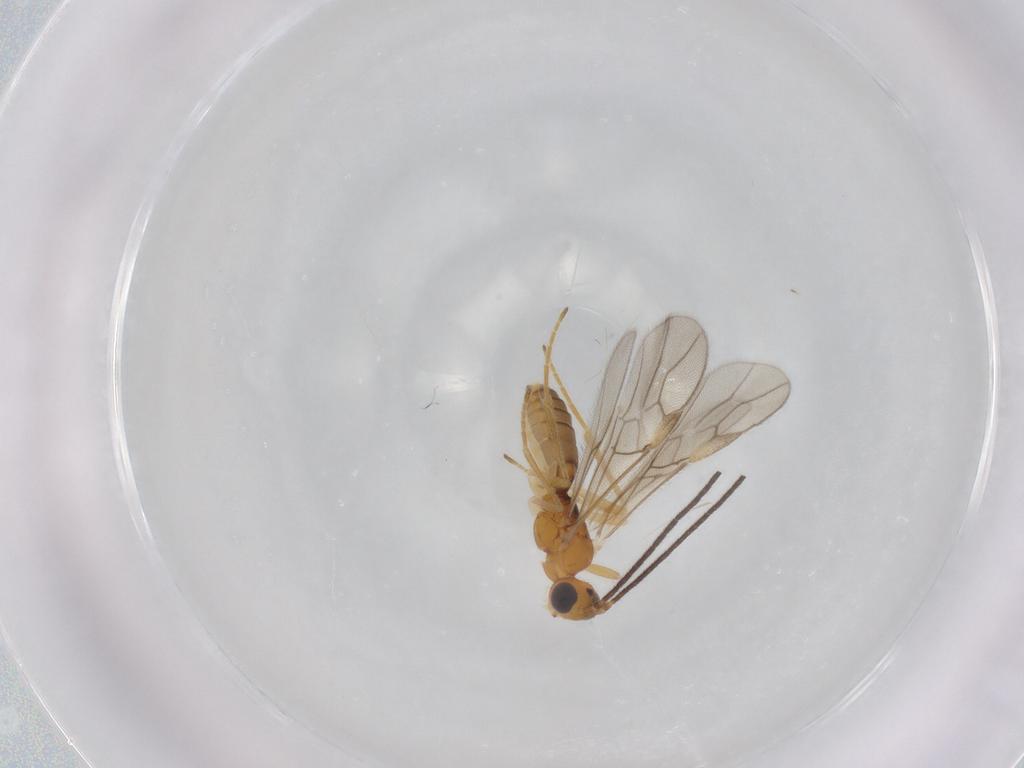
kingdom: Animalia
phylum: Arthropoda
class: Insecta
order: Hymenoptera
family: Braconidae
